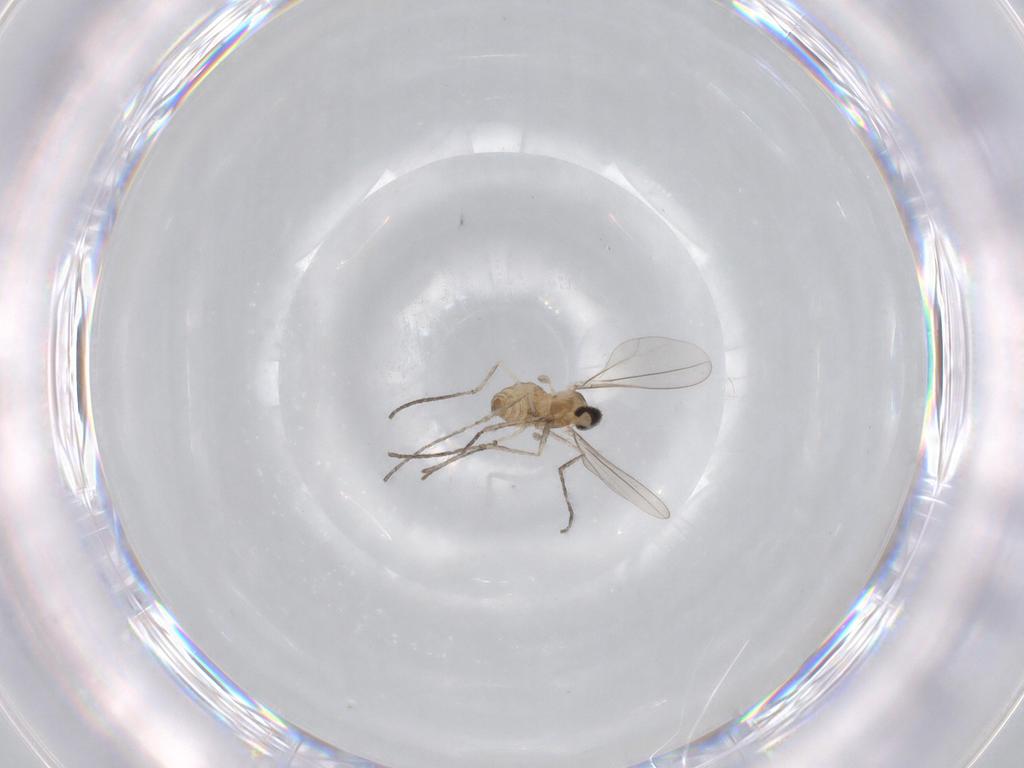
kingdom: Animalia
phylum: Arthropoda
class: Insecta
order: Diptera
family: Cecidomyiidae
